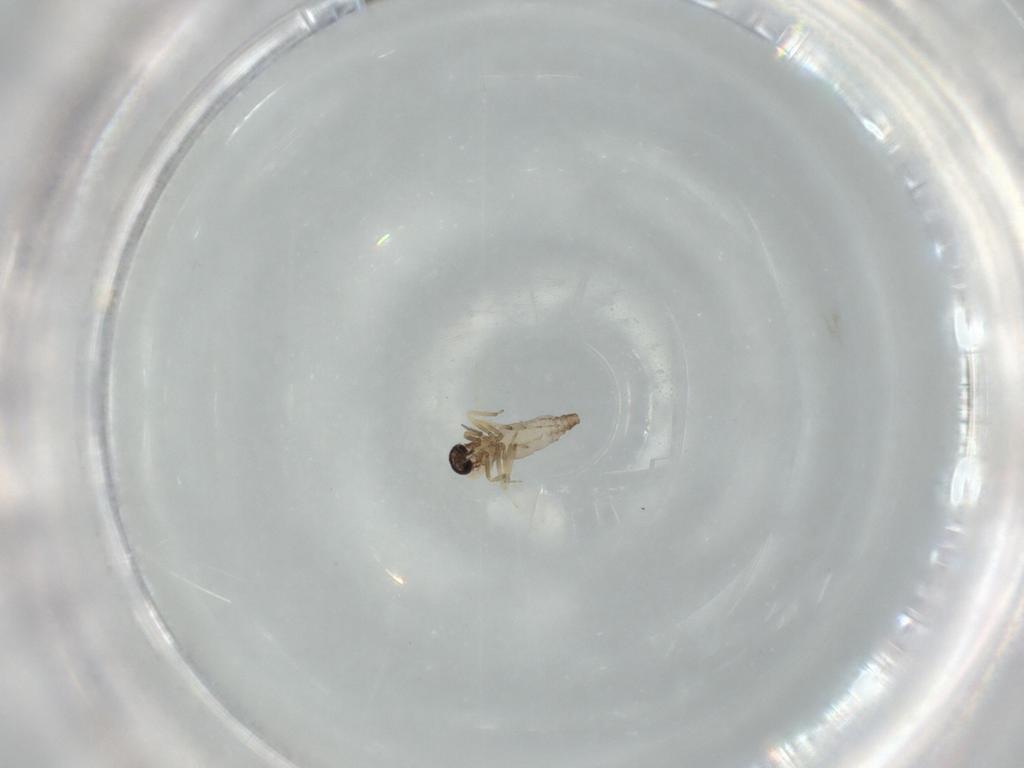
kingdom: Animalia
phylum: Arthropoda
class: Insecta
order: Diptera
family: Ceratopogonidae
